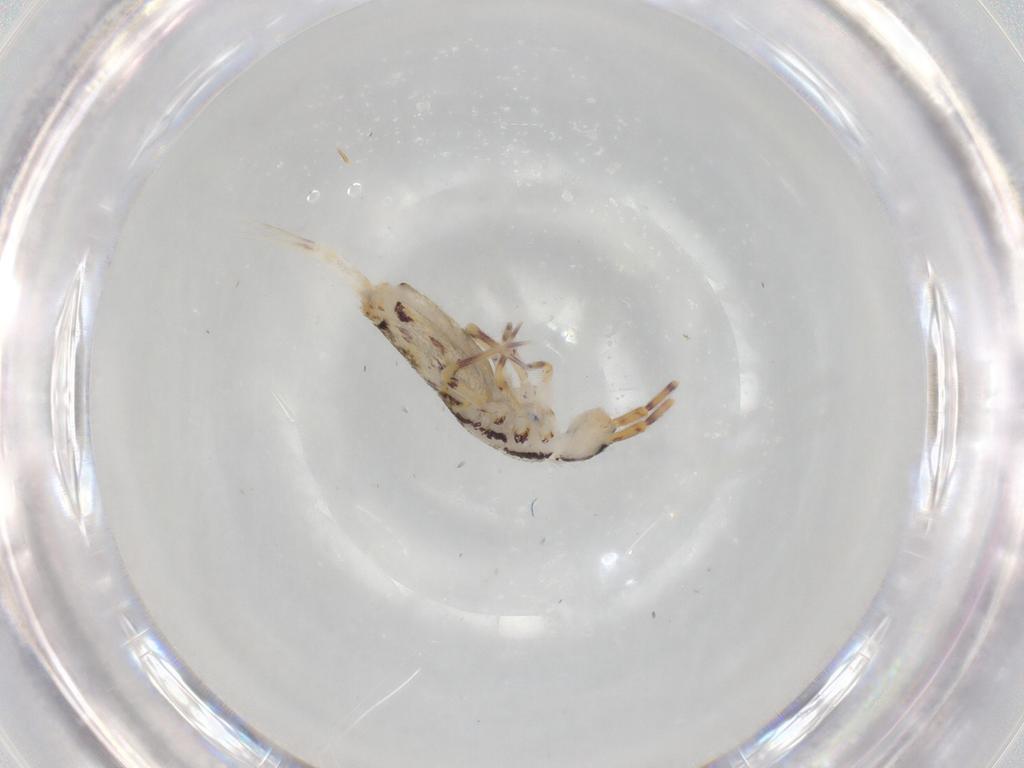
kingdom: Animalia
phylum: Arthropoda
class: Collembola
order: Entomobryomorpha
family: Entomobryidae
